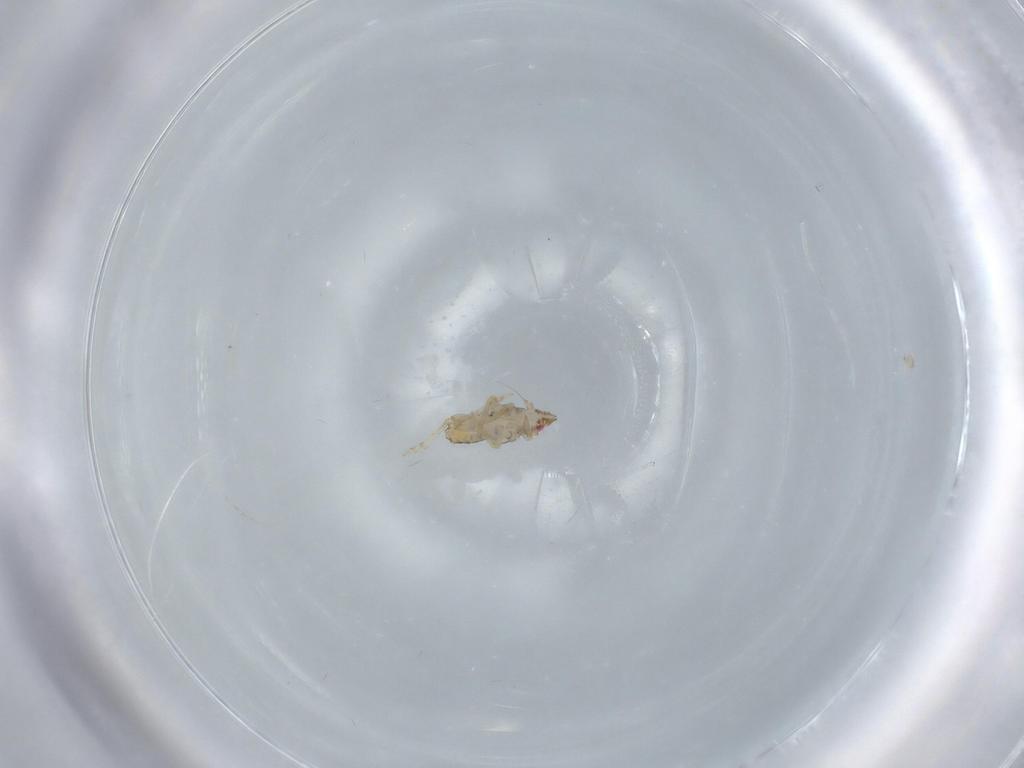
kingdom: Animalia
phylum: Arthropoda
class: Insecta
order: Hemiptera
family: Delphacidae
